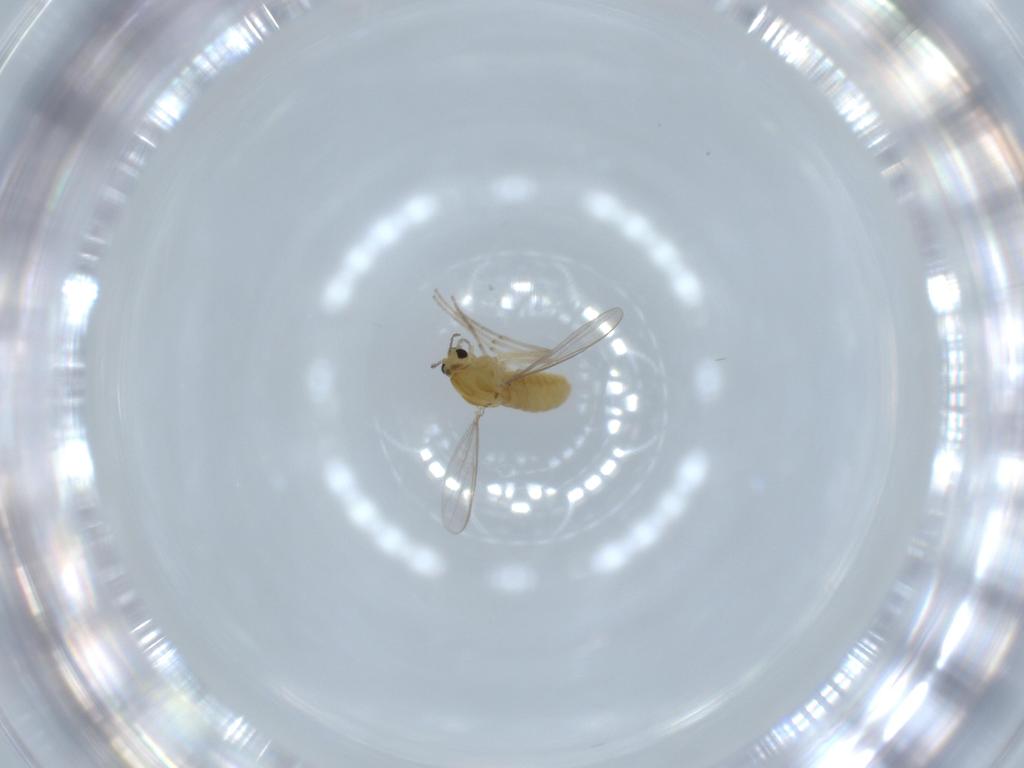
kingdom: Animalia
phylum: Arthropoda
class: Insecta
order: Diptera
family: Chironomidae
